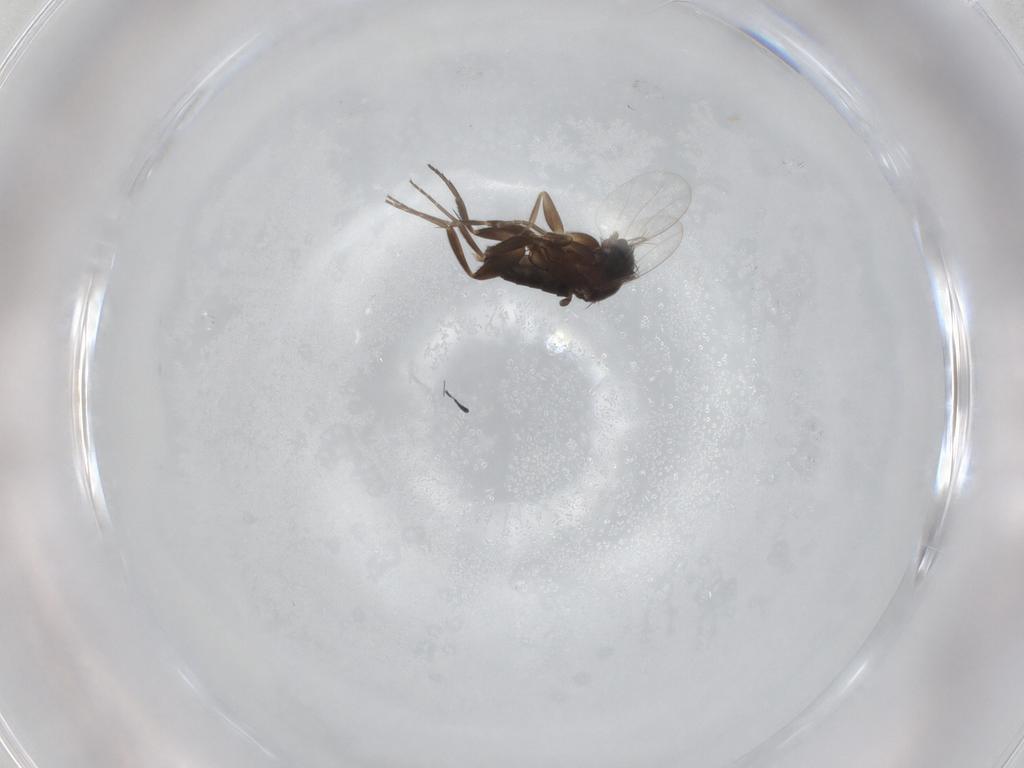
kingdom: Animalia
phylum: Arthropoda
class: Insecta
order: Diptera
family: Phoridae
